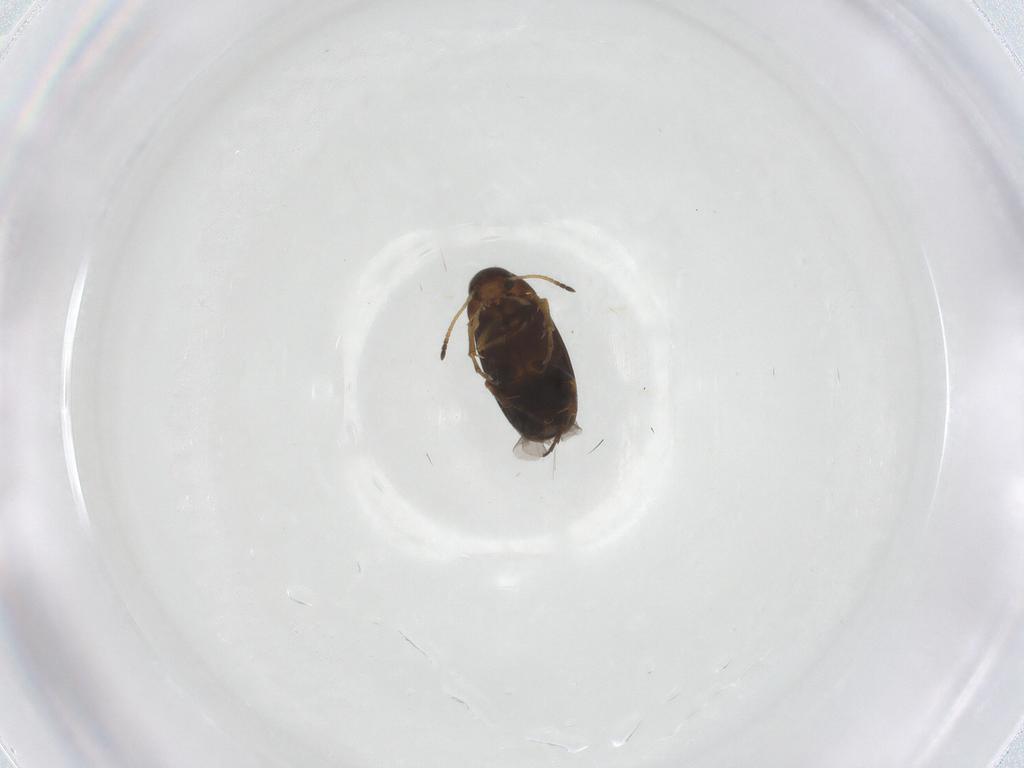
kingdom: Animalia
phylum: Arthropoda
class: Insecta
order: Coleoptera
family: Scraptiidae
